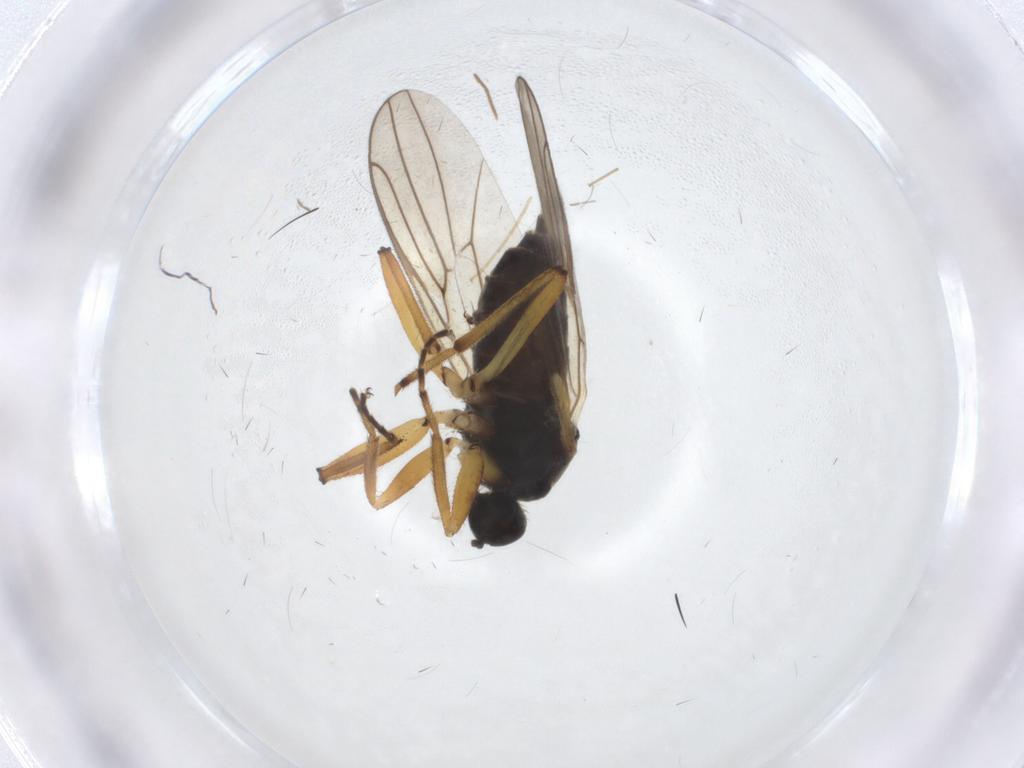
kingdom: Animalia
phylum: Arthropoda
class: Insecta
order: Diptera
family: Hybotidae
